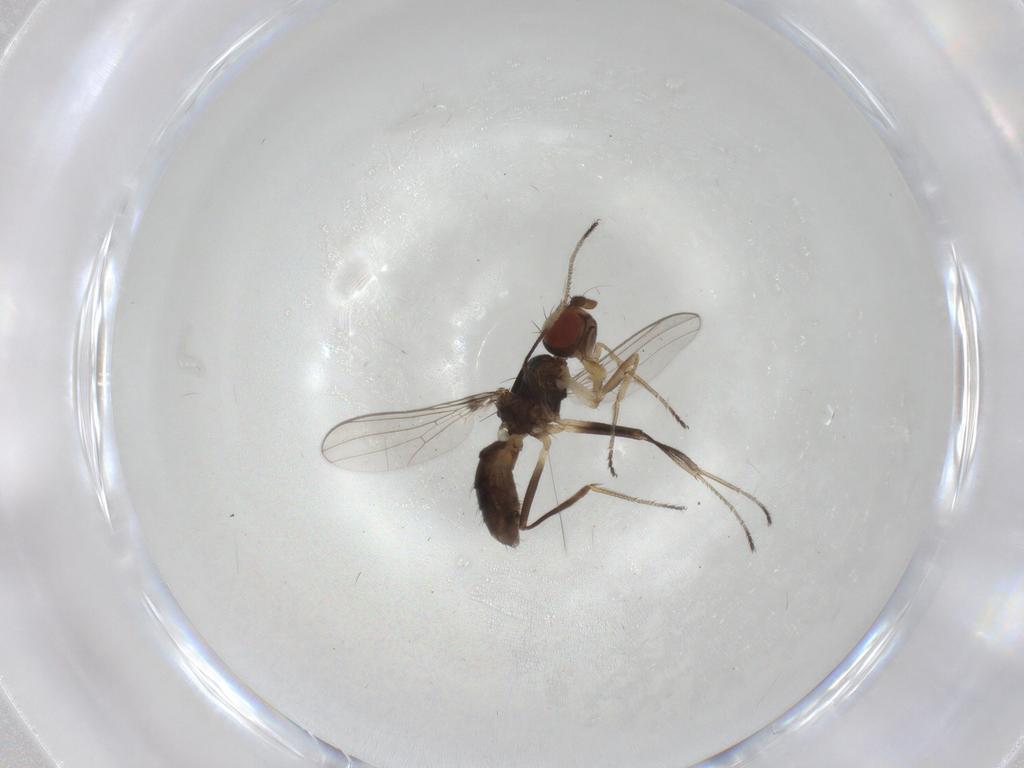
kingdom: Animalia
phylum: Arthropoda
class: Insecta
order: Diptera
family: Sepsidae
